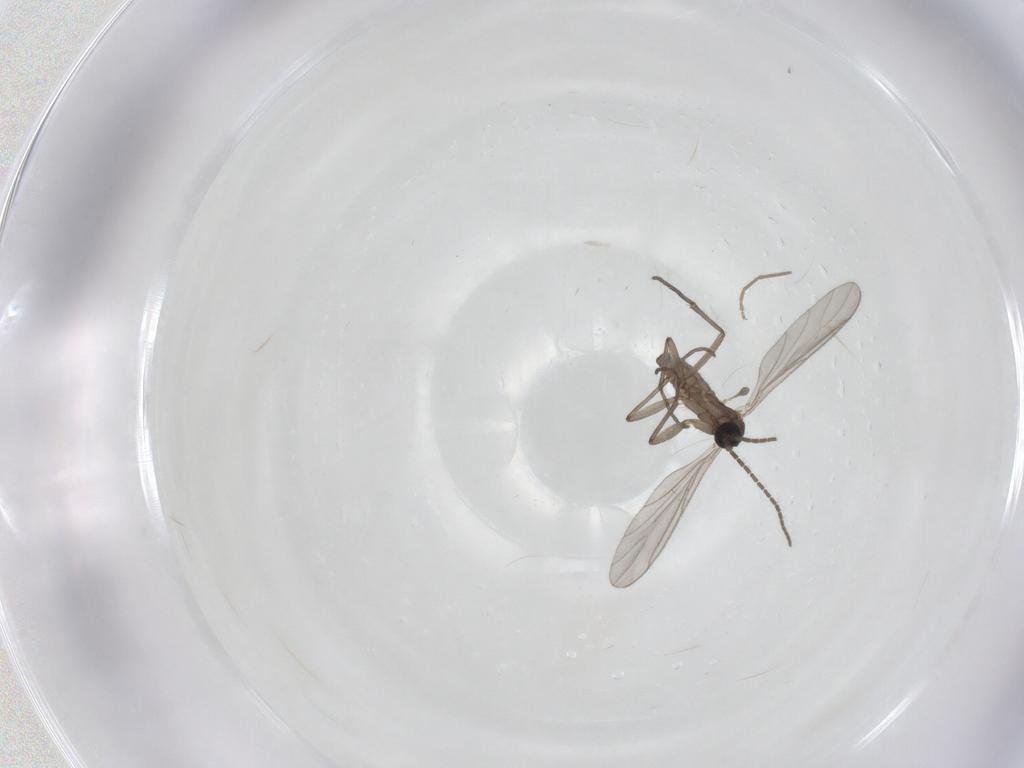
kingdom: Animalia
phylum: Arthropoda
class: Insecta
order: Diptera
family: Chironomidae
